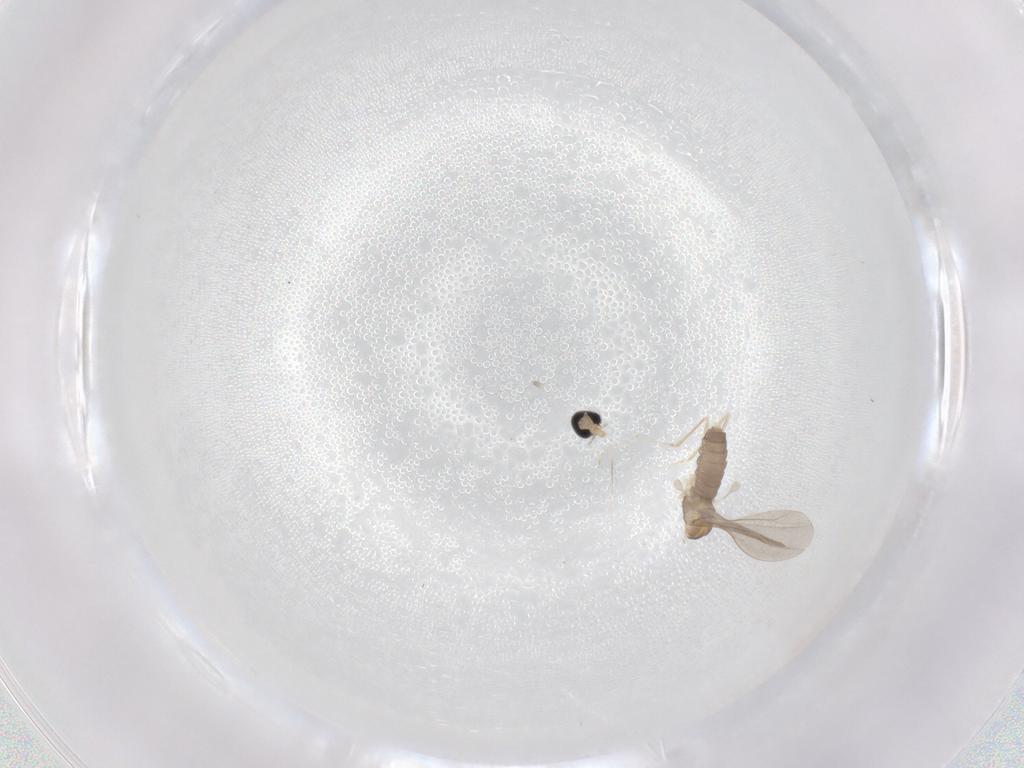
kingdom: Animalia
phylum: Arthropoda
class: Insecta
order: Diptera
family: Cecidomyiidae
